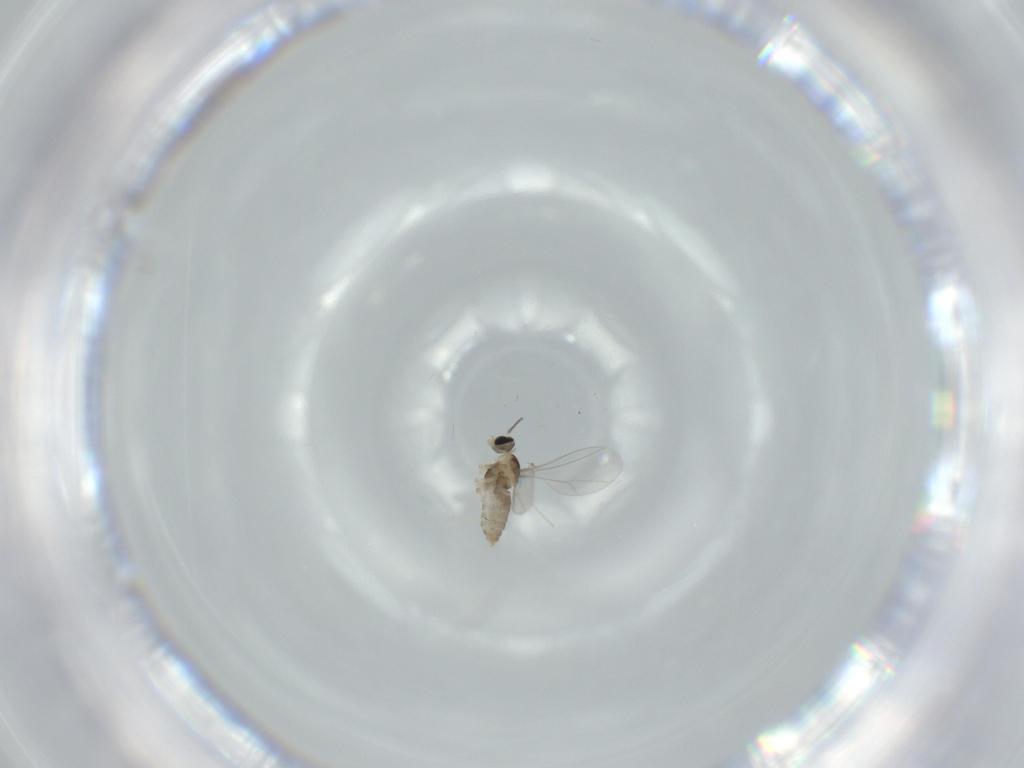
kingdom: Animalia
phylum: Arthropoda
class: Insecta
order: Diptera
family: Cecidomyiidae
